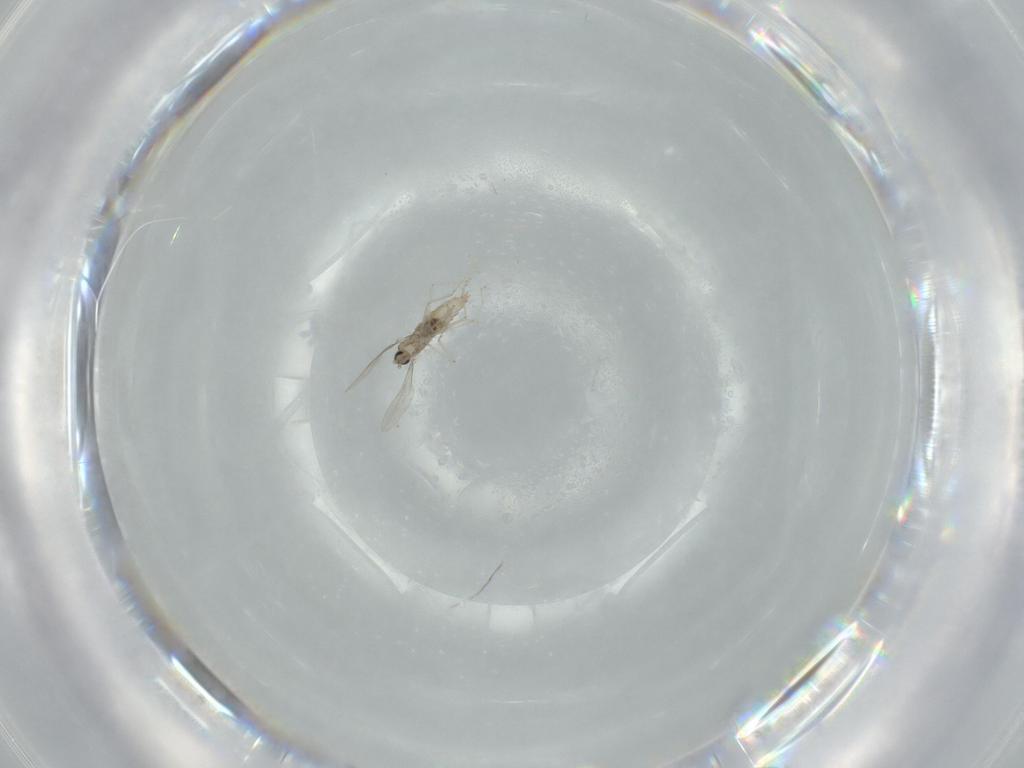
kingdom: Animalia
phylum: Arthropoda
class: Insecta
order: Diptera
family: Cecidomyiidae
